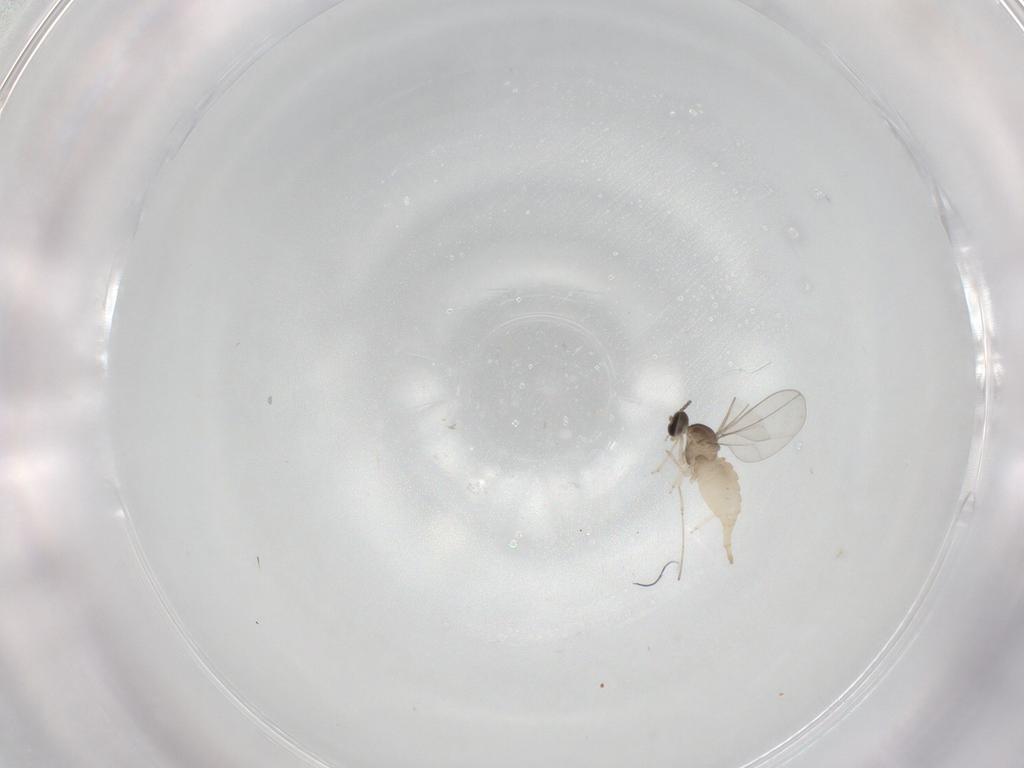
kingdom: Animalia
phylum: Arthropoda
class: Insecta
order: Diptera
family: Cecidomyiidae
